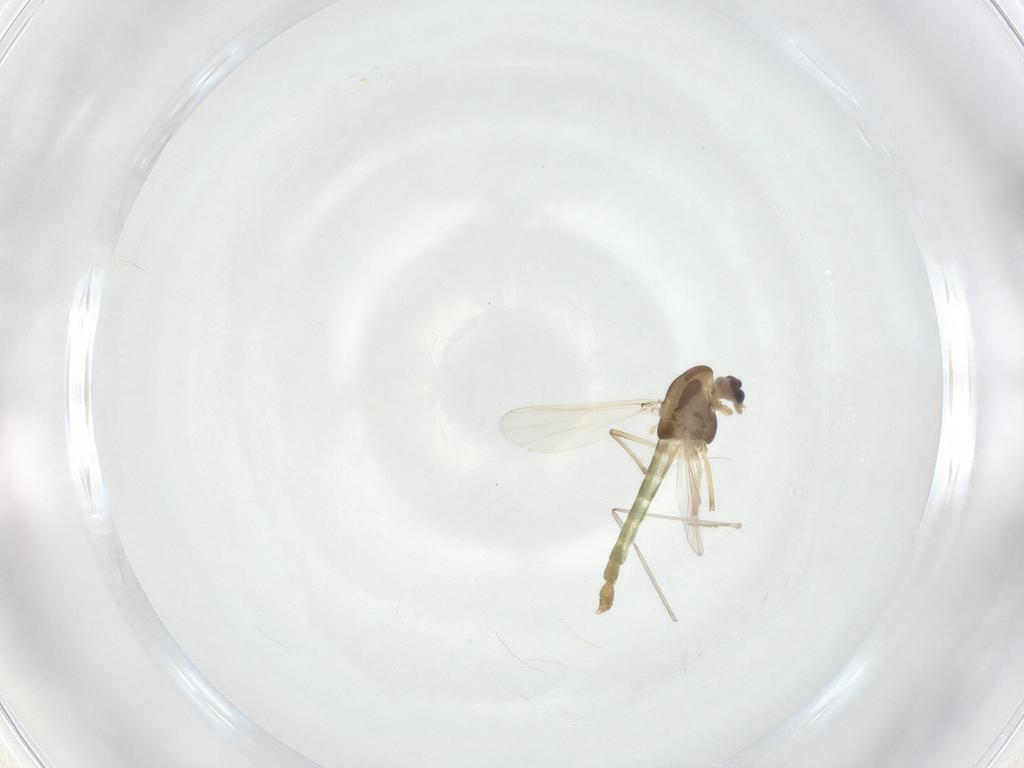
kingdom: Animalia
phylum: Arthropoda
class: Insecta
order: Diptera
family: Chironomidae
